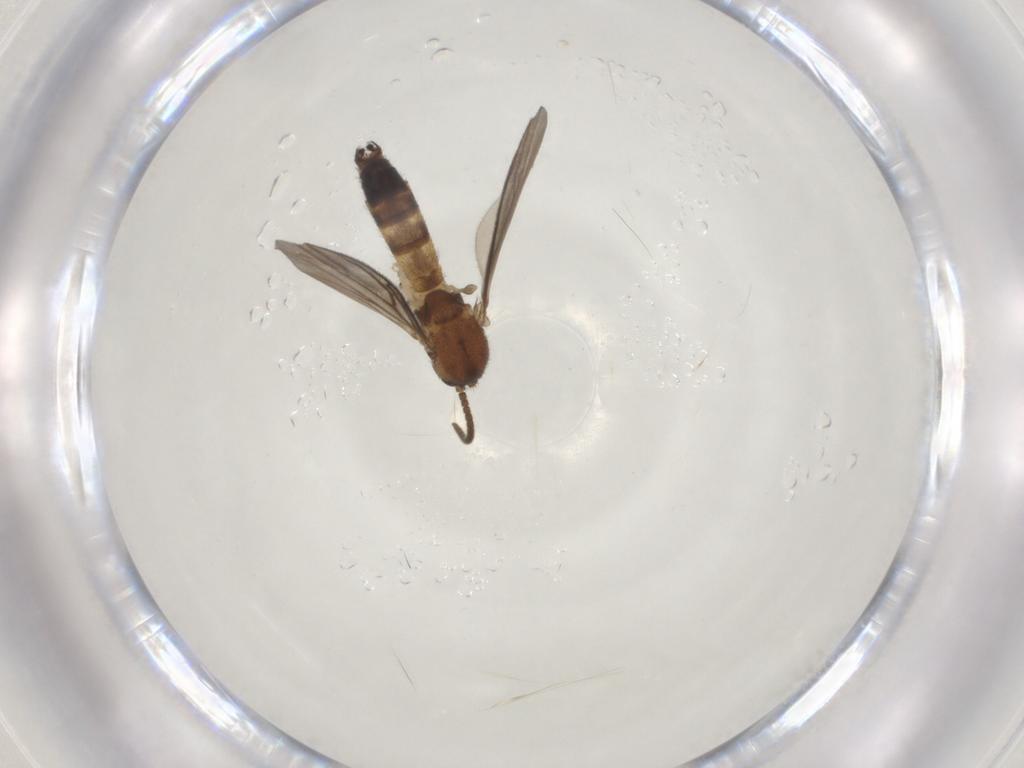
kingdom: Animalia
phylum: Arthropoda
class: Insecta
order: Diptera
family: Mycetophilidae
